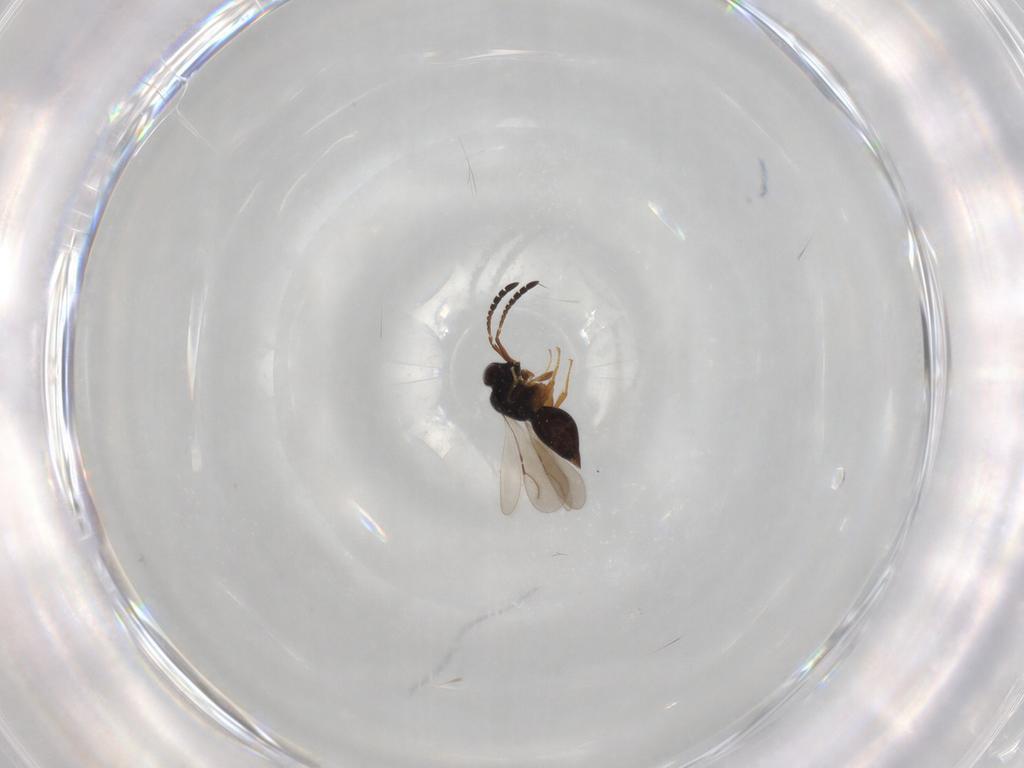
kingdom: Animalia
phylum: Arthropoda
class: Insecta
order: Hymenoptera
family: Ceraphronidae
